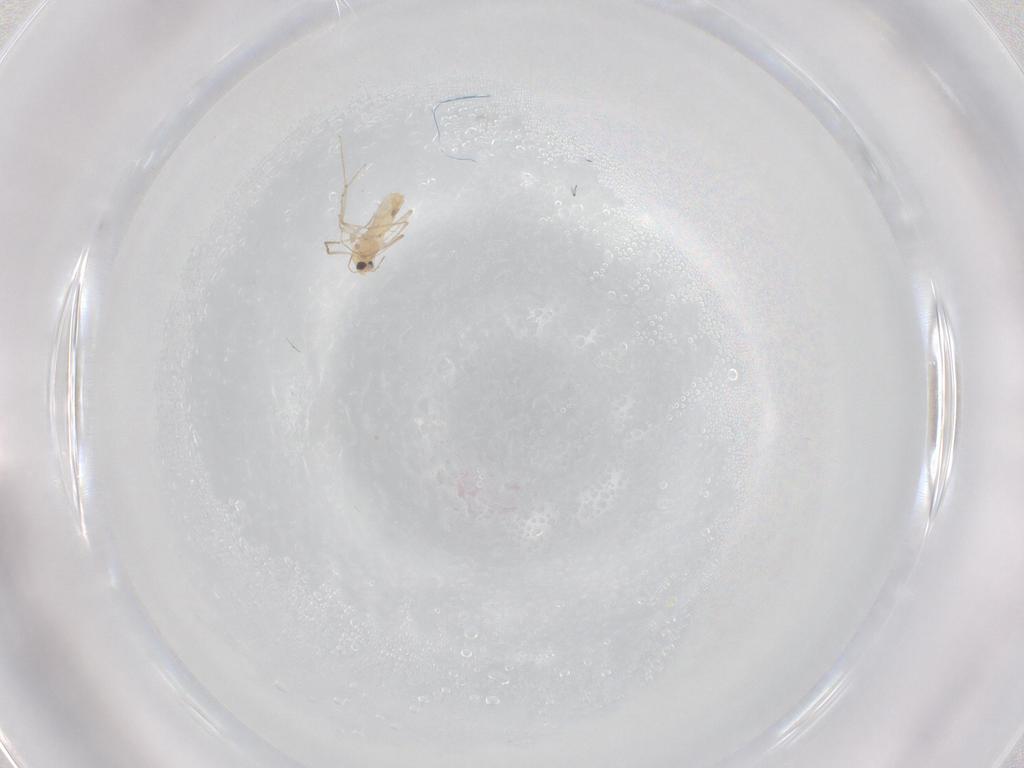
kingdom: Animalia
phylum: Arthropoda
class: Insecta
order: Diptera
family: Chironomidae
